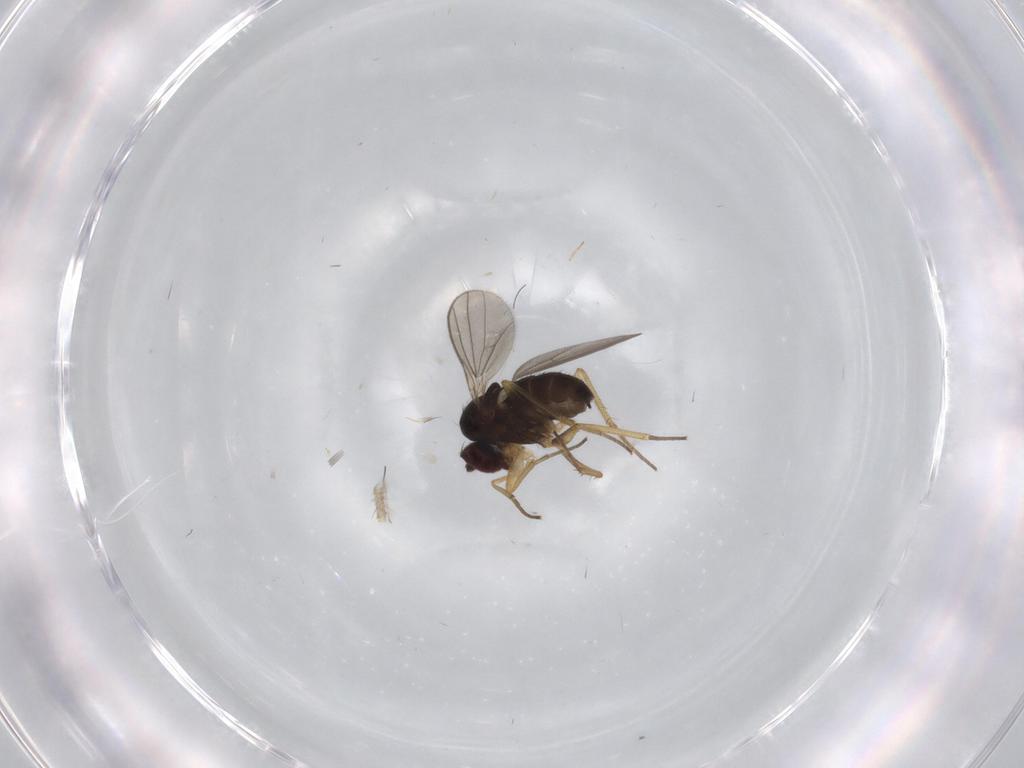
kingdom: Animalia
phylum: Arthropoda
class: Insecta
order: Diptera
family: Dolichopodidae
